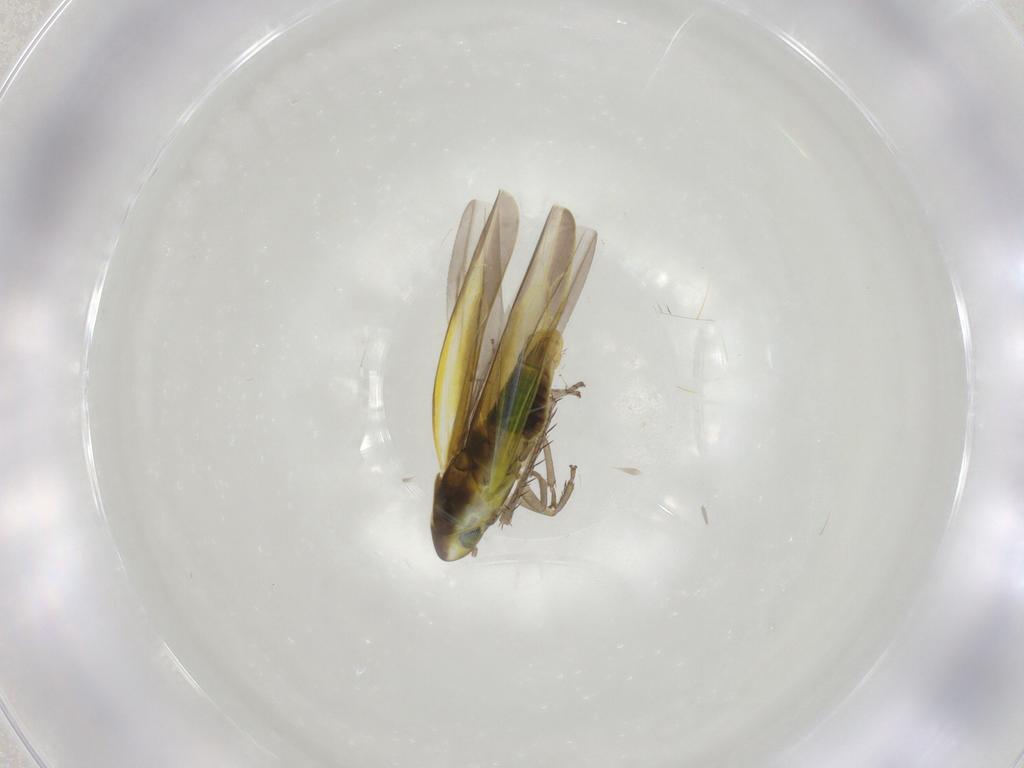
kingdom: Animalia
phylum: Arthropoda
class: Insecta
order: Hemiptera
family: Cicadellidae
